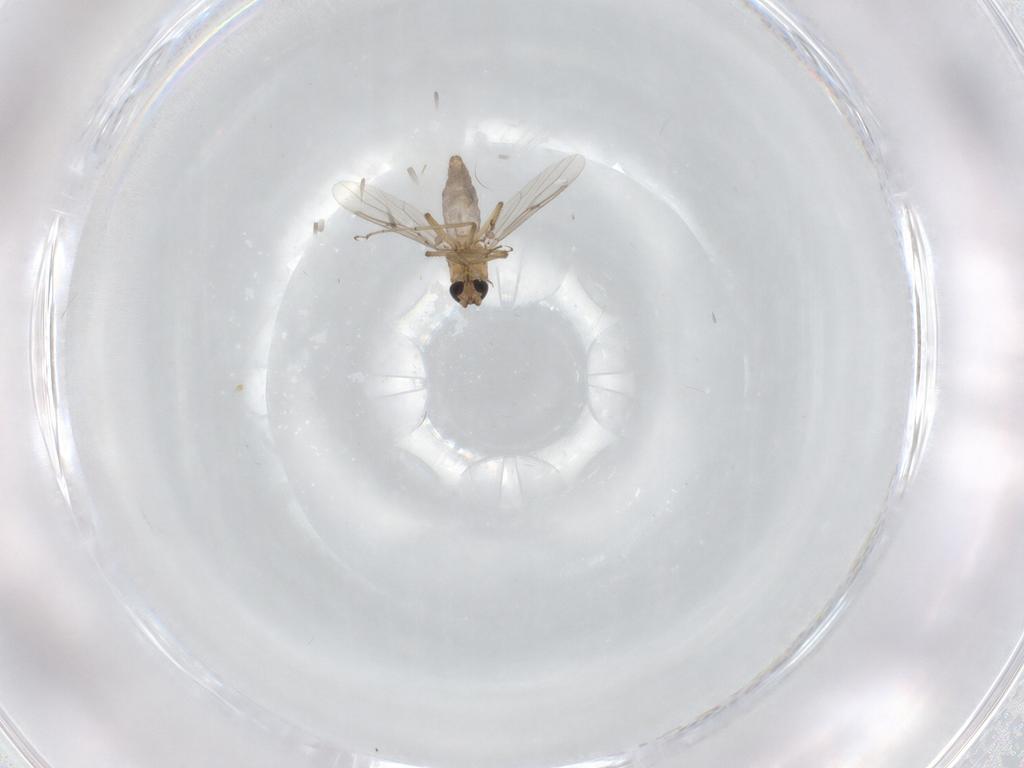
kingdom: Animalia
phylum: Arthropoda
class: Insecta
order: Diptera
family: Ceratopogonidae
